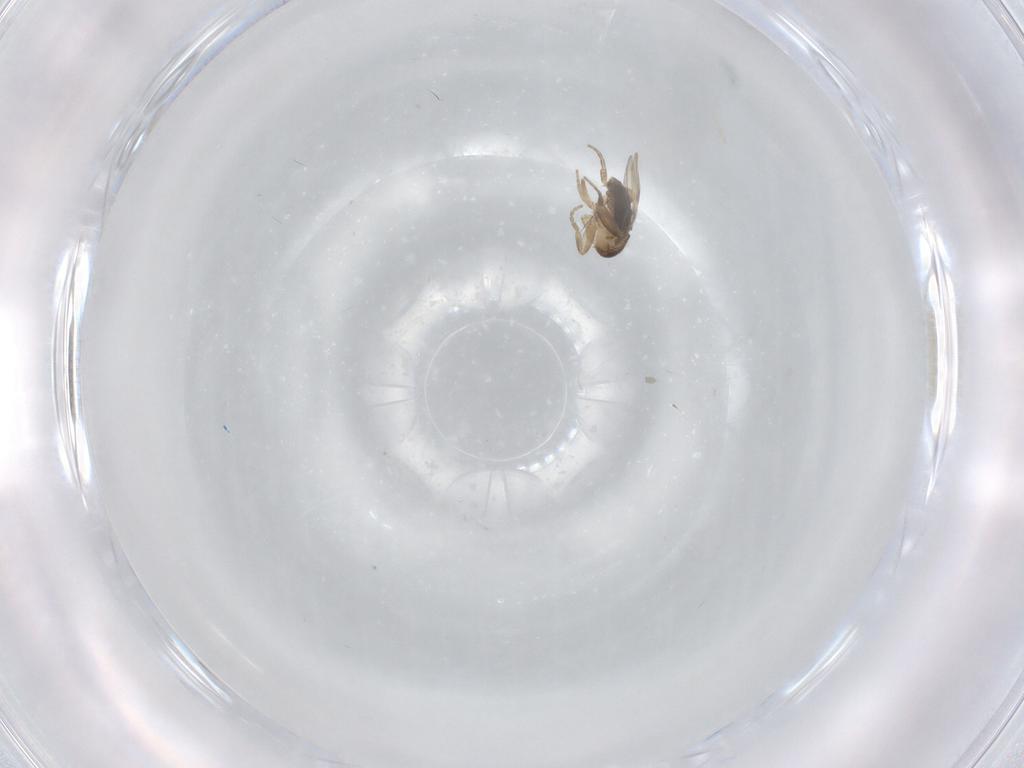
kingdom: Animalia
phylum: Arthropoda
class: Insecta
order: Diptera
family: Phoridae
